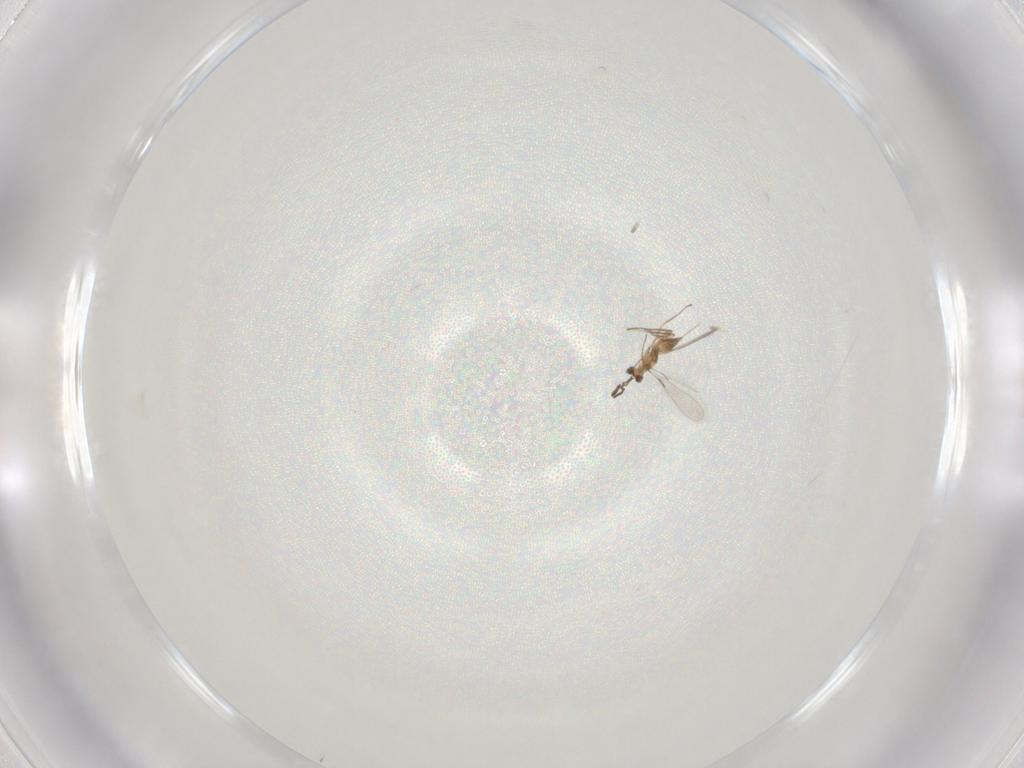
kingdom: Animalia
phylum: Arthropoda
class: Insecta
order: Hymenoptera
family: Mymaridae
